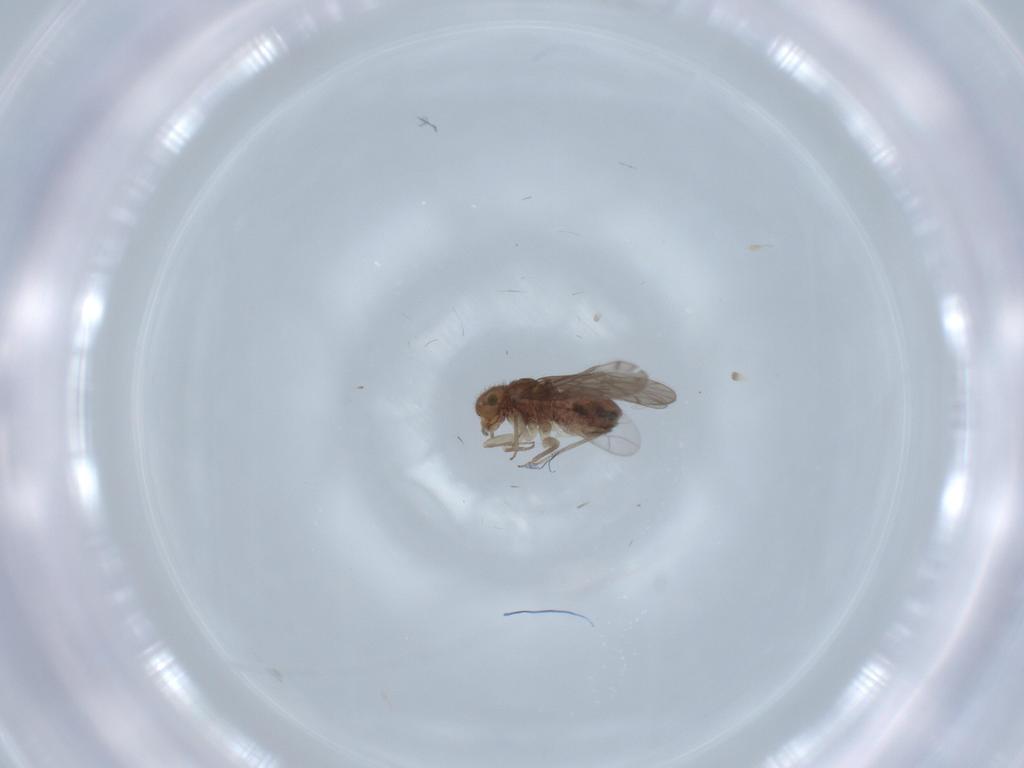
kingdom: Animalia
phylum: Arthropoda
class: Insecta
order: Psocodea
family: Ectopsocidae
